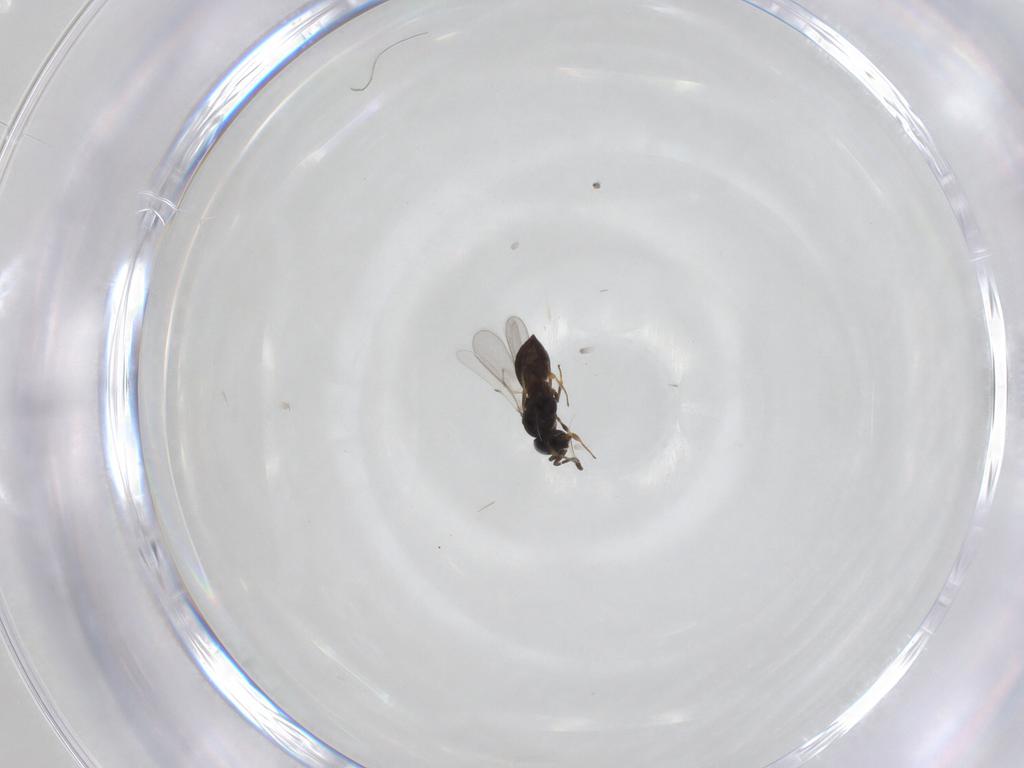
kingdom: Animalia
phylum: Arthropoda
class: Insecta
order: Hymenoptera
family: Scelionidae
